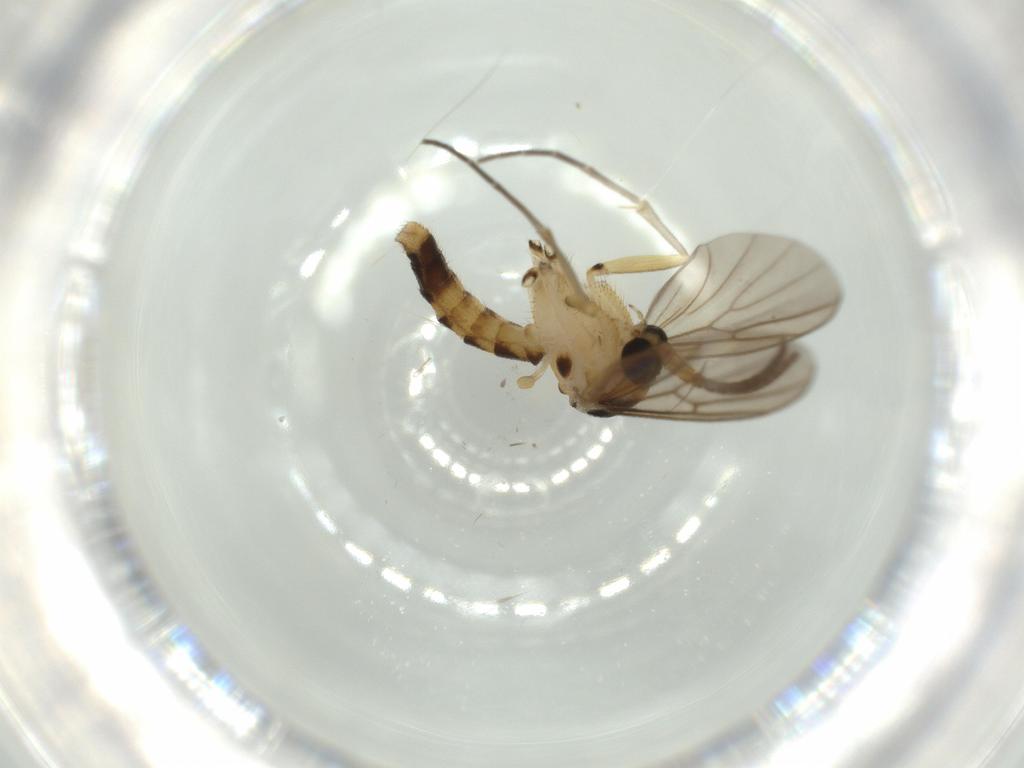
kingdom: Animalia
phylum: Arthropoda
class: Insecta
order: Diptera
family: Chironomidae
